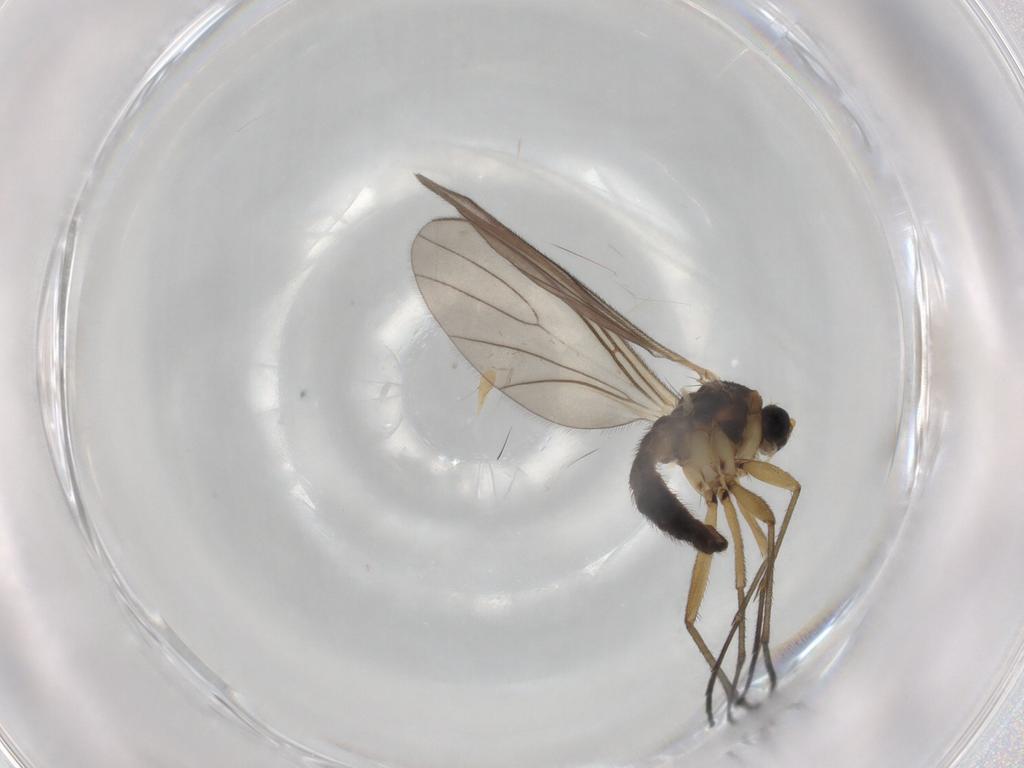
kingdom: Animalia
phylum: Arthropoda
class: Insecta
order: Diptera
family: Sciaridae
